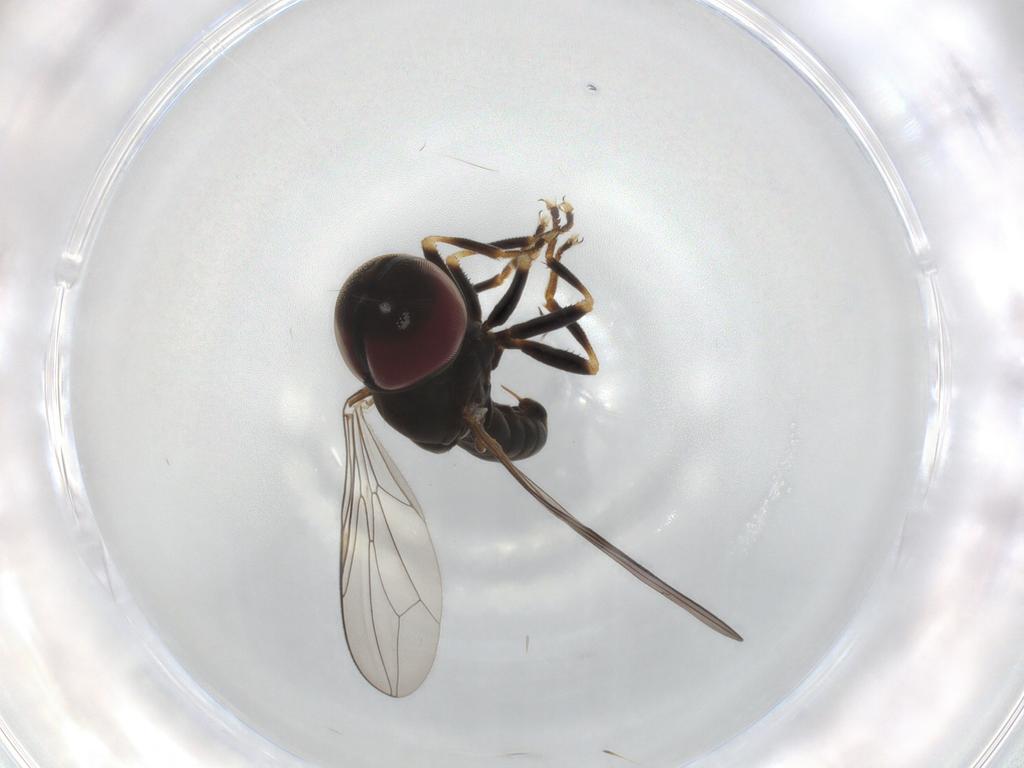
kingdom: Animalia
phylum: Arthropoda
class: Insecta
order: Diptera
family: Pipunculidae
